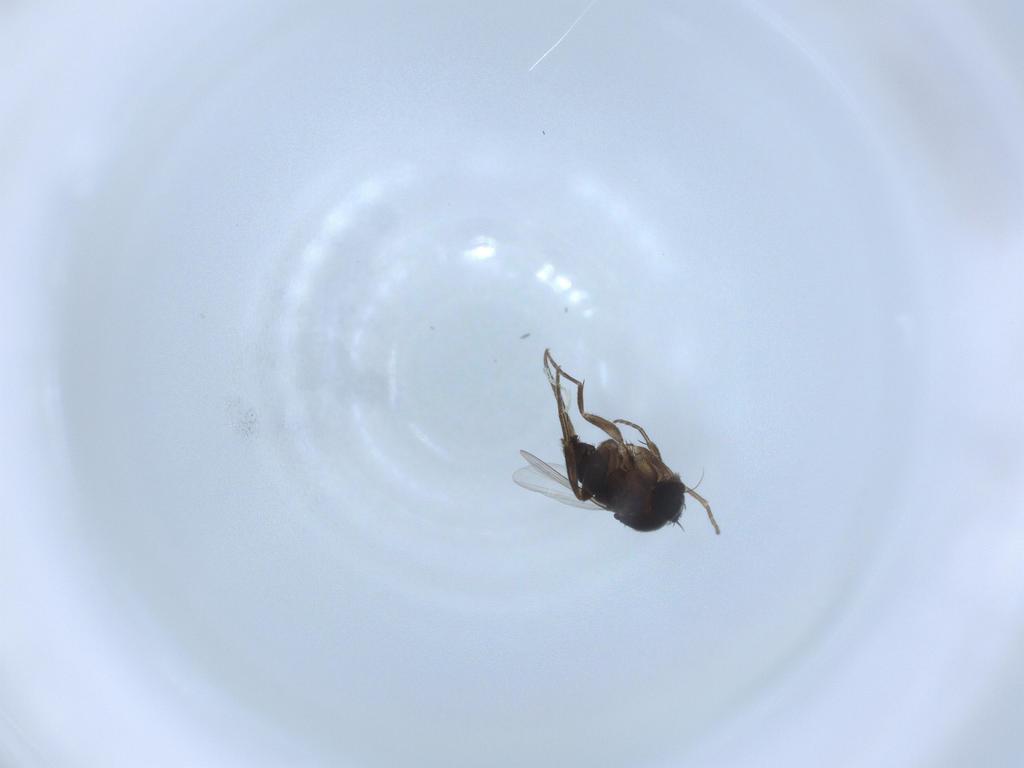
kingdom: Animalia
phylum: Arthropoda
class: Insecta
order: Diptera
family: Phoridae
